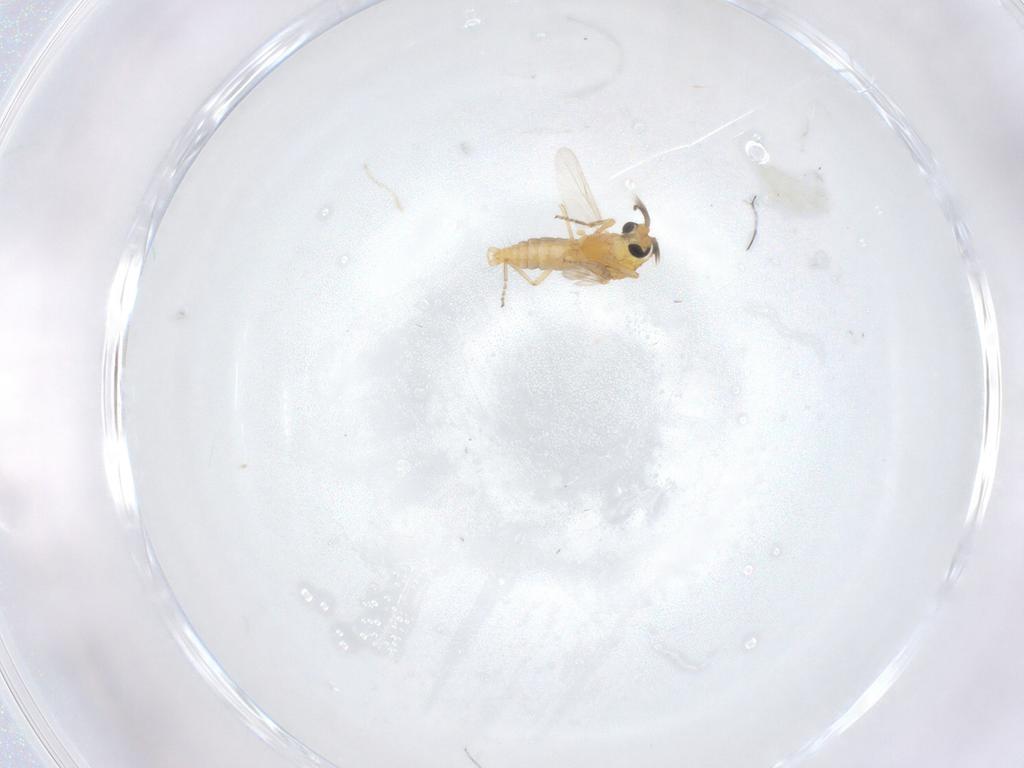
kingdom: Animalia
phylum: Arthropoda
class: Insecta
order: Diptera
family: Ceratopogonidae
